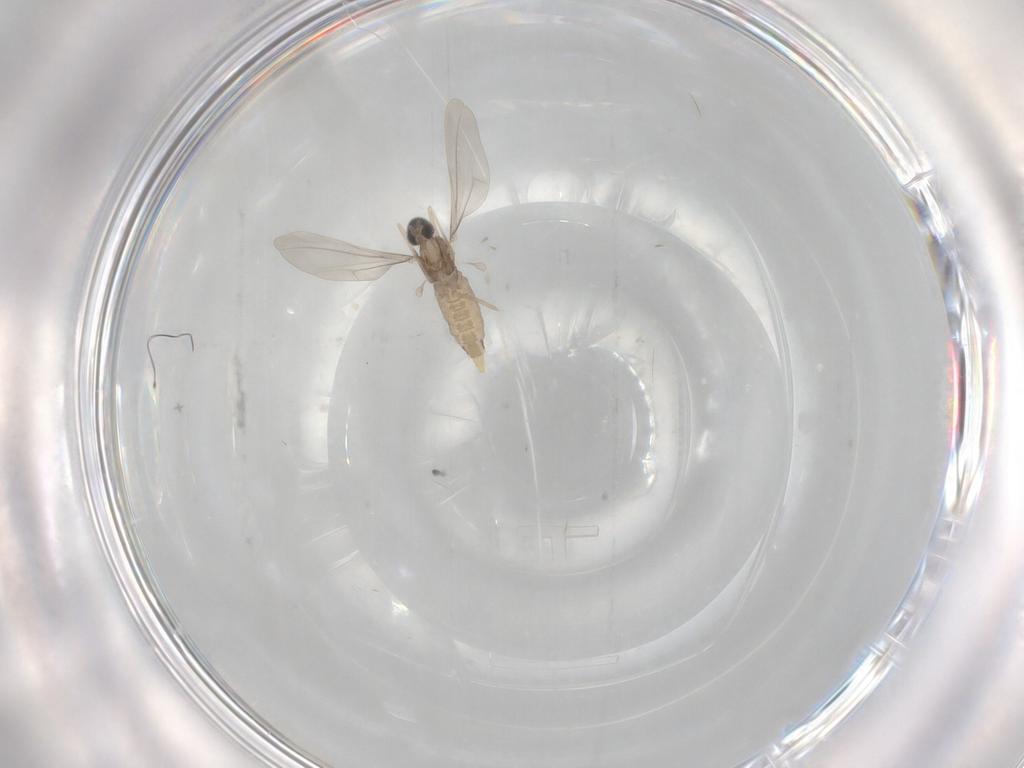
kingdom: Animalia
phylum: Arthropoda
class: Insecta
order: Diptera
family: Cecidomyiidae
